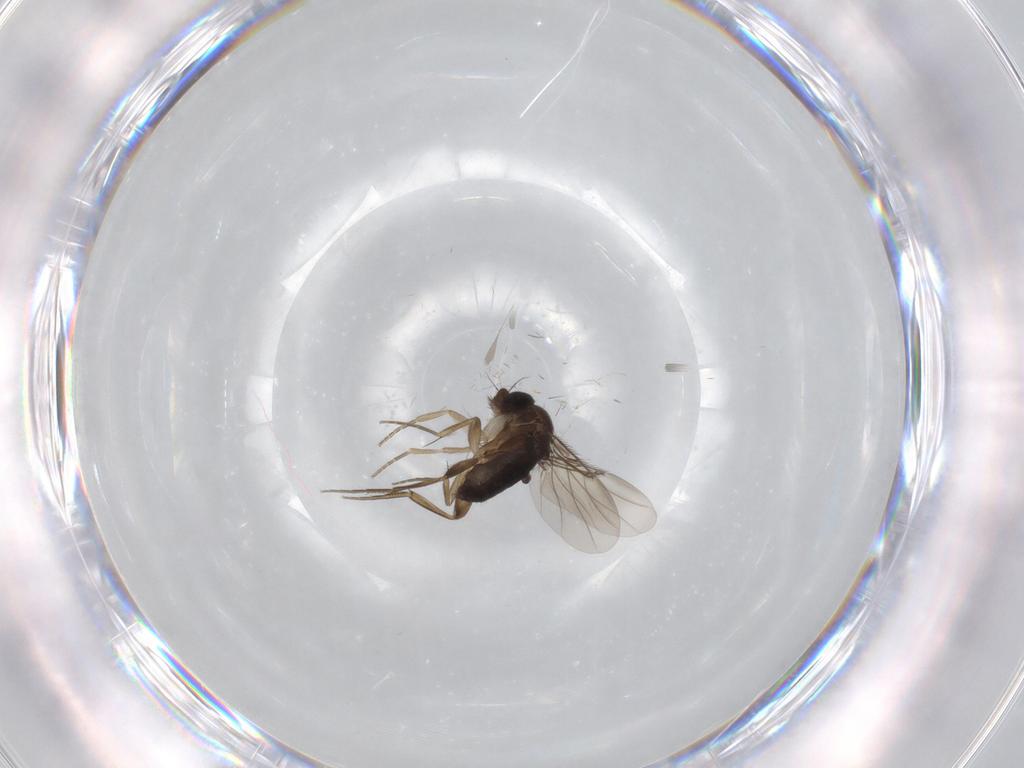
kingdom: Animalia
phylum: Arthropoda
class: Insecta
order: Diptera
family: Phoridae
